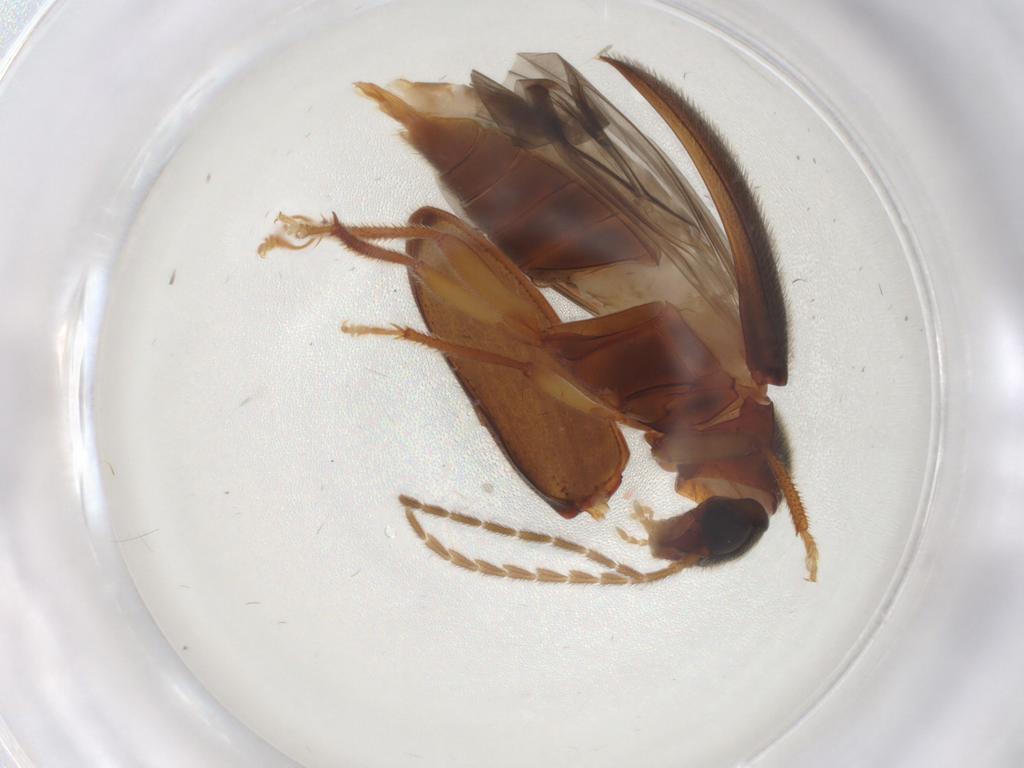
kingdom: Animalia
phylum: Arthropoda
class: Insecta
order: Coleoptera
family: Ptilodactylidae
